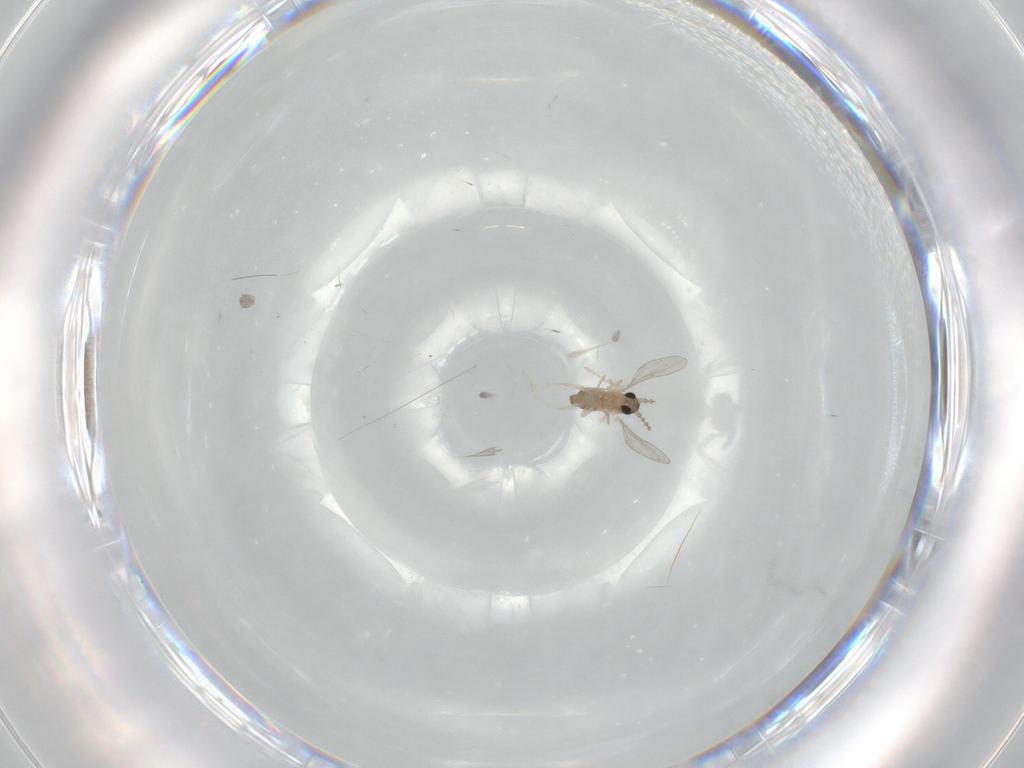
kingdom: Animalia
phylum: Arthropoda
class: Insecta
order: Diptera
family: Cecidomyiidae
